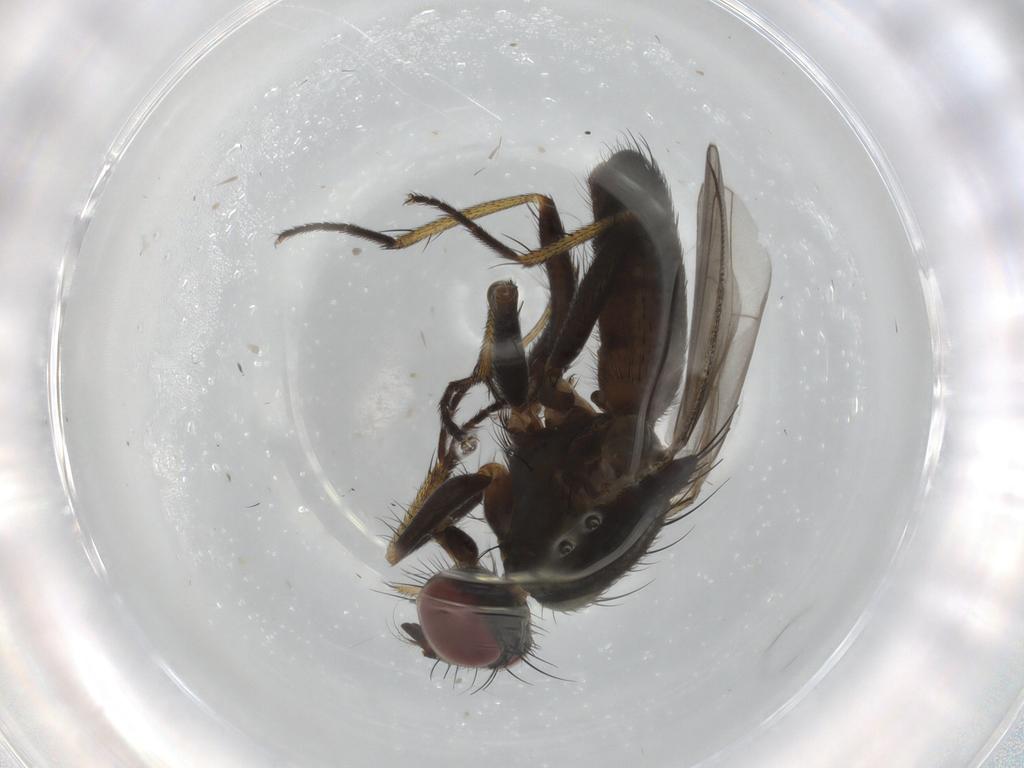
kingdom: Animalia
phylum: Arthropoda
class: Insecta
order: Diptera
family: Muscidae
